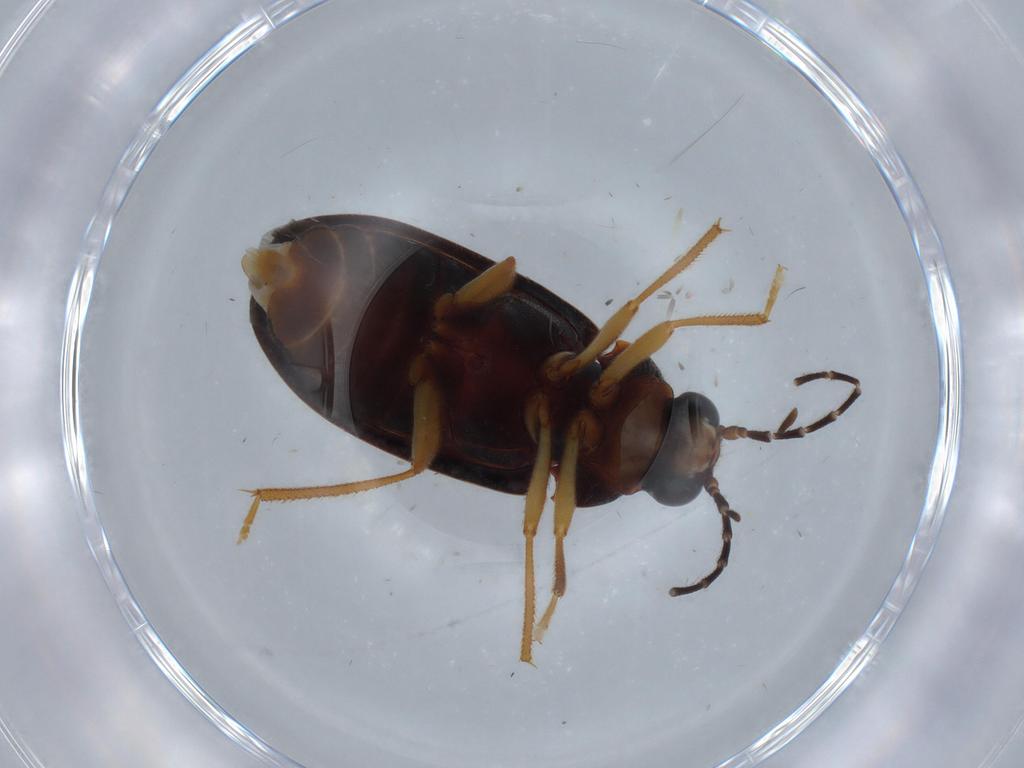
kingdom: Animalia
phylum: Arthropoda
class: Insecta
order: Coleoptera
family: Ptilodactylidae
